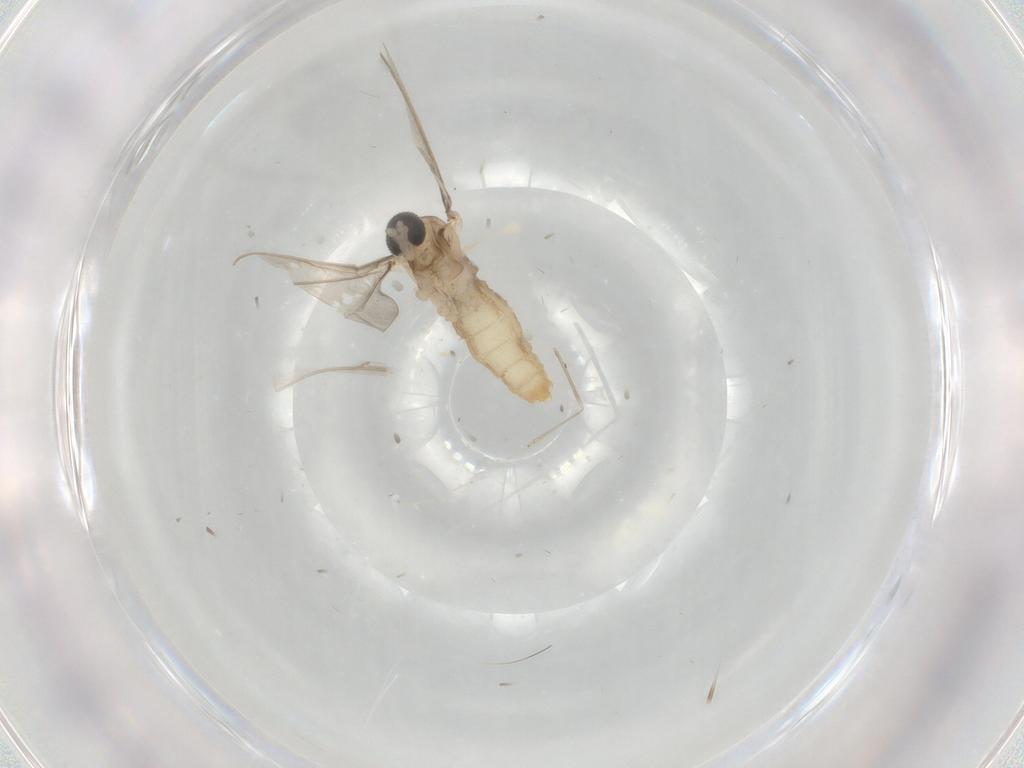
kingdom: Animalia
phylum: Arthropoda
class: Insecta
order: Diptera
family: Cecidomyiidae
